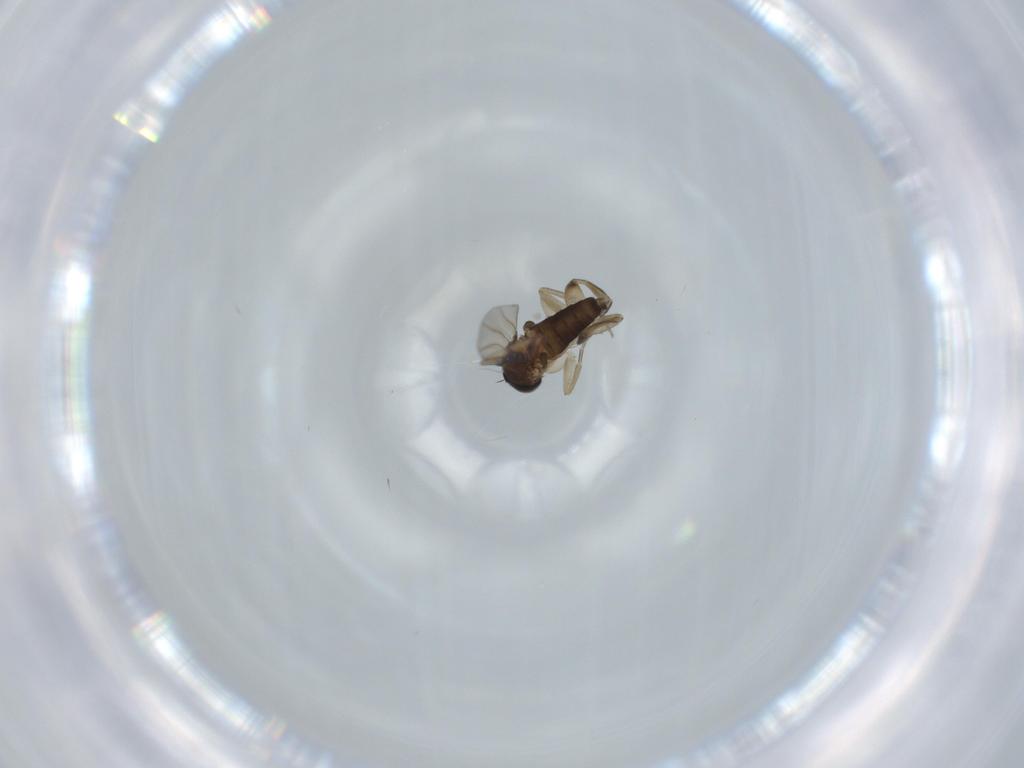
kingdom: Animalia
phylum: Arthropoda
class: Insecta
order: Diptera
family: Phoridae
